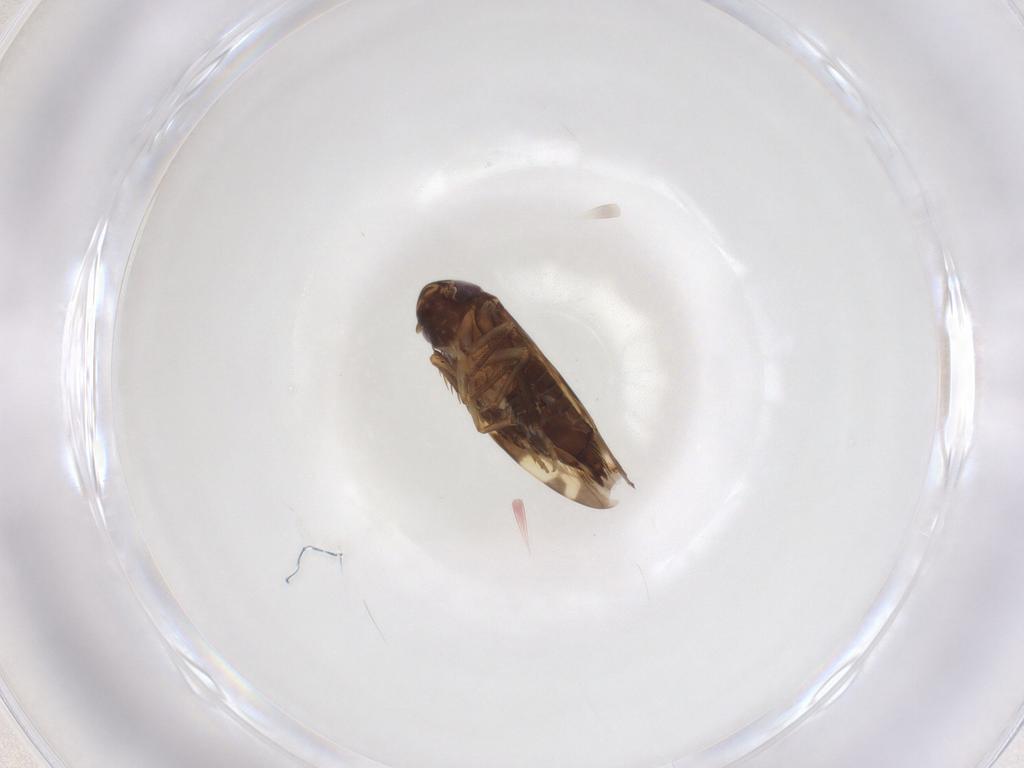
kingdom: Animalia
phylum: Arthropoda
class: Insecta
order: Hemiptera
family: Cicadellidae
